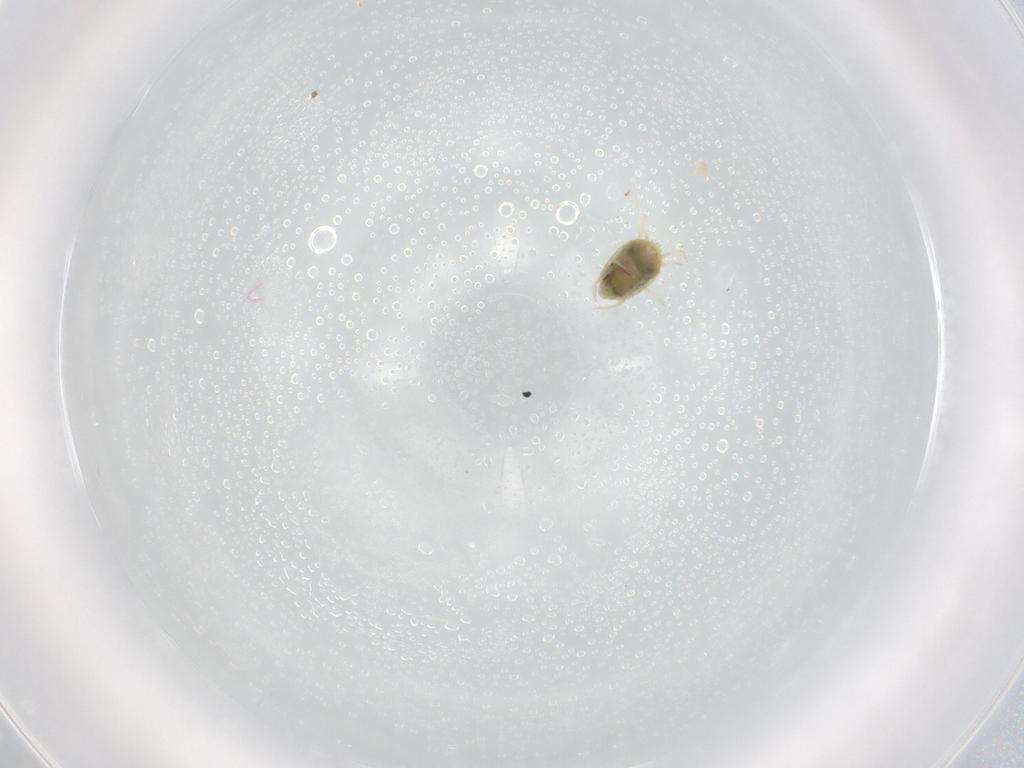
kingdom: Animalia
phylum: Arthropoda
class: Arachnida
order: Trombidiformes
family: Tetranychidae
